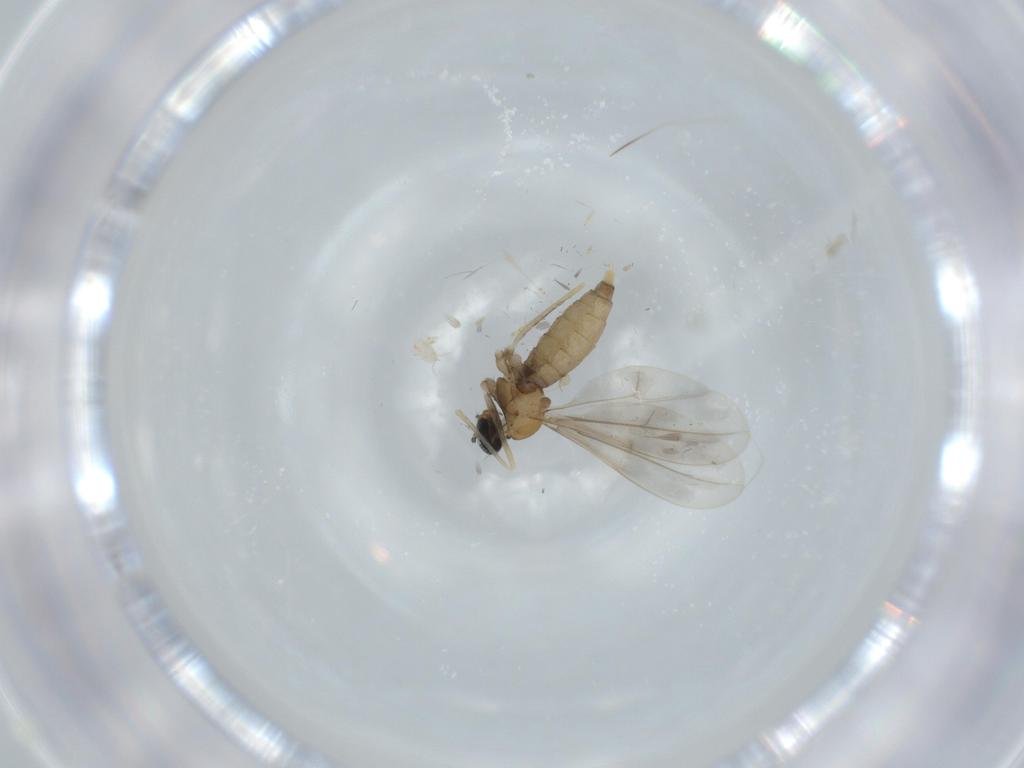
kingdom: Animalia
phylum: Arthropoda
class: Insecta
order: Diptera
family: Cecidomyiidae
